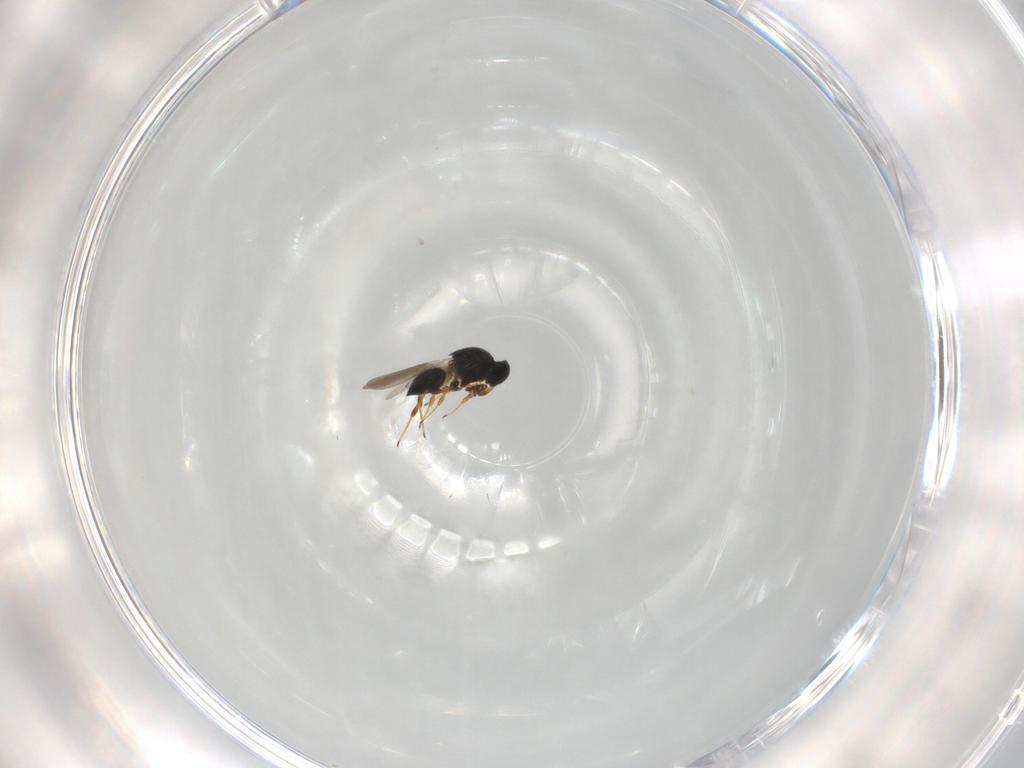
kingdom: Animalia
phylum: Arthropoda
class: Insecta
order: Hymenoptera
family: Platygastridae
